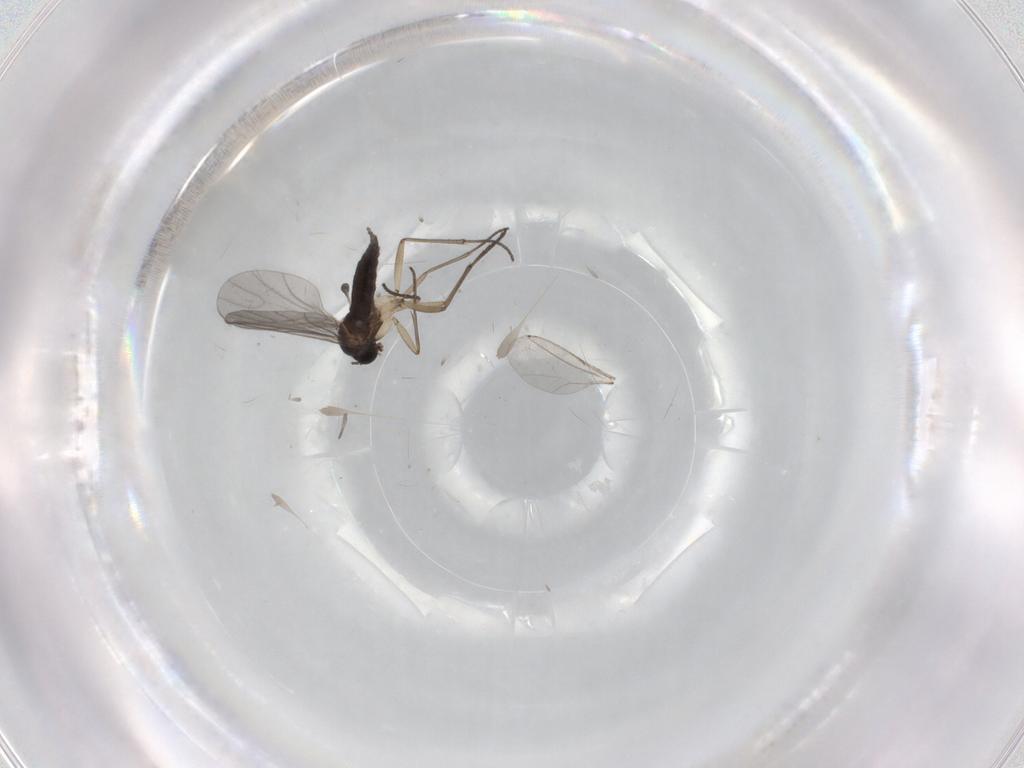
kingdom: Animalia
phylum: Arthropoda
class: Insecta
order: Diptera
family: Sciaridae
